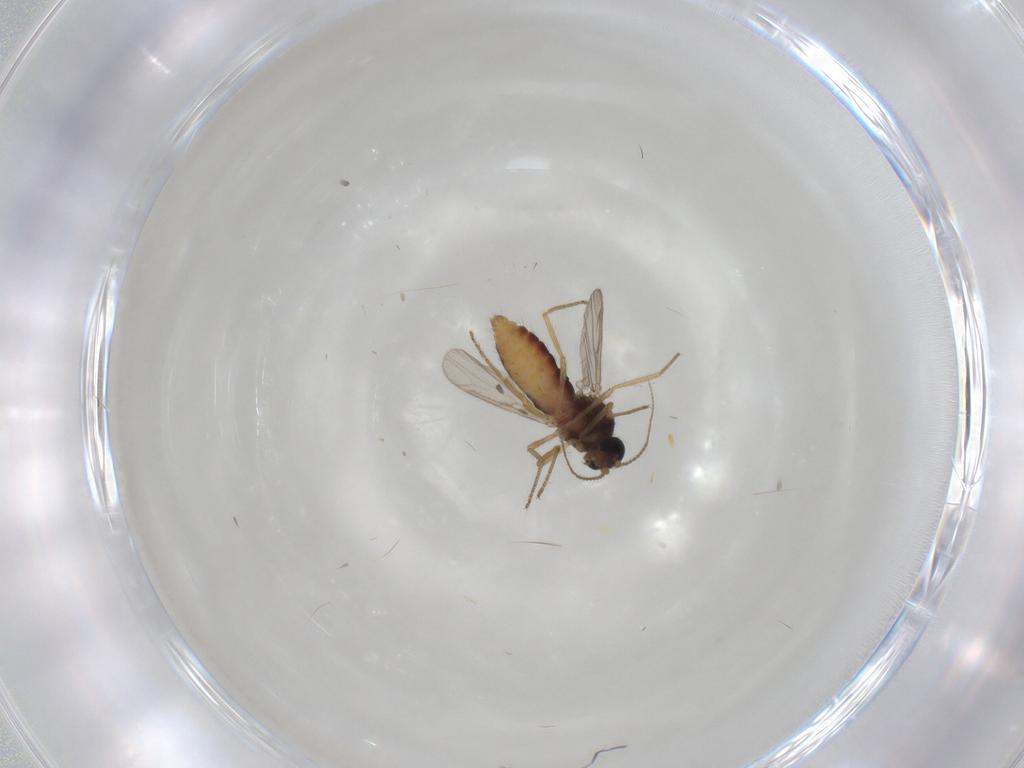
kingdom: Animalia
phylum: Arthropoda
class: Insecta
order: Diptera
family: Ceratopogonidae
